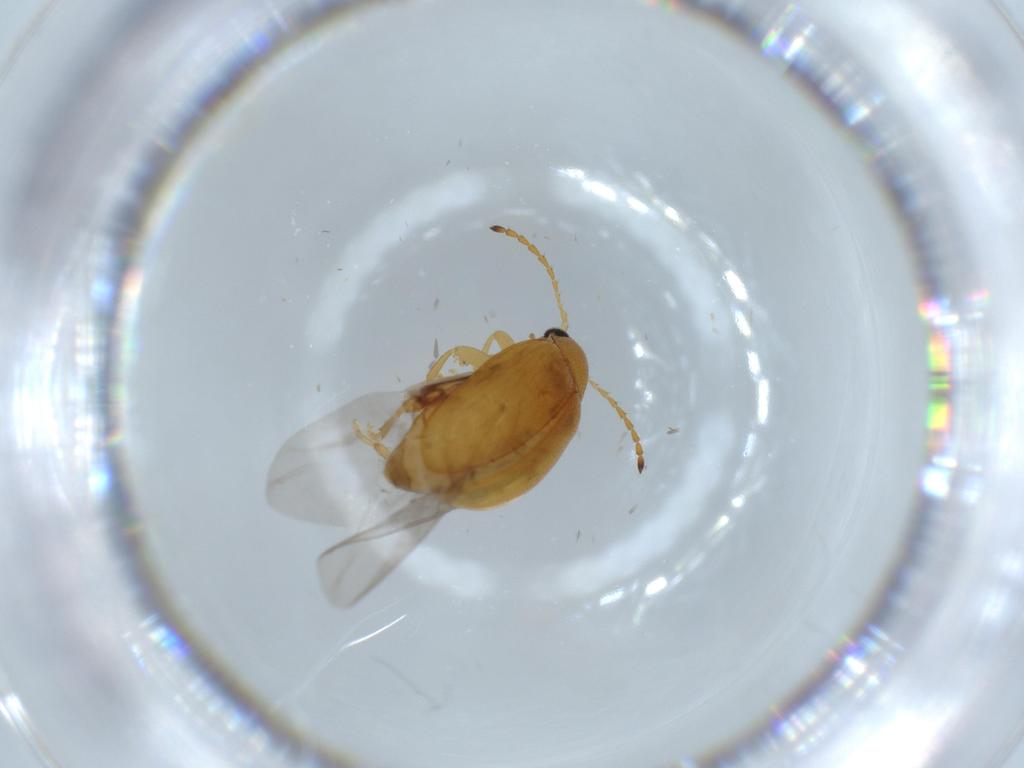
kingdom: Animalia
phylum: Arthropoda
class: Insecta
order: Coleoptera
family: Chrysomelidae
